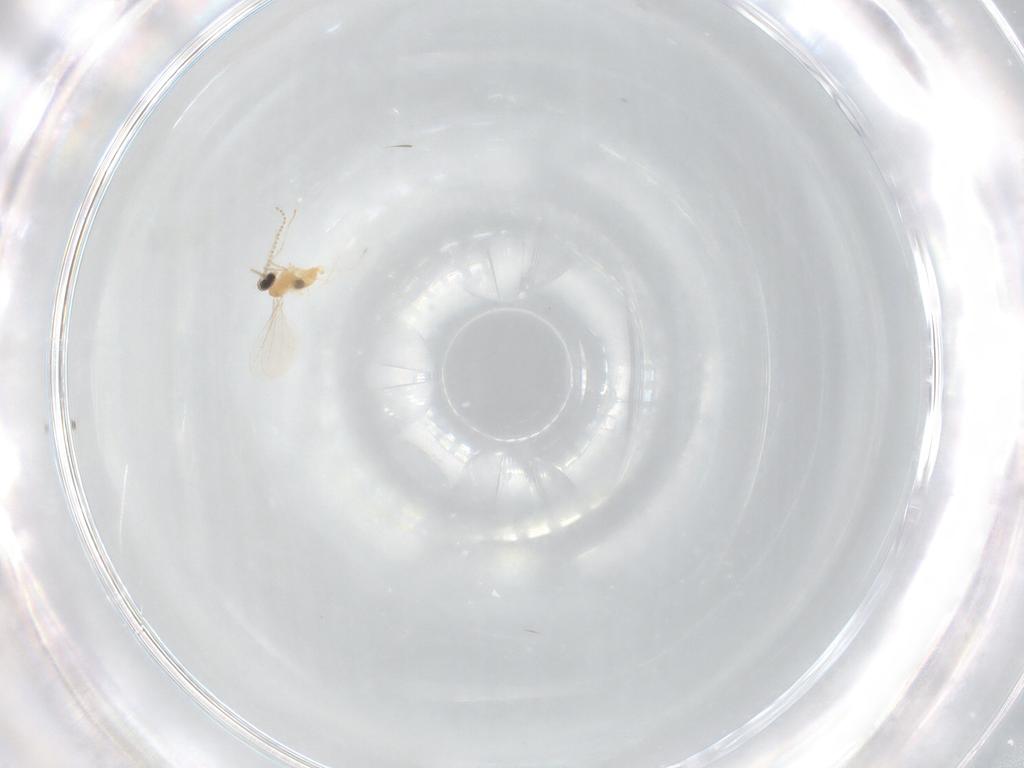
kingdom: Animalia
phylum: Arthropoda
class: Insecta
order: Diptera
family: Cecidomyiidae
